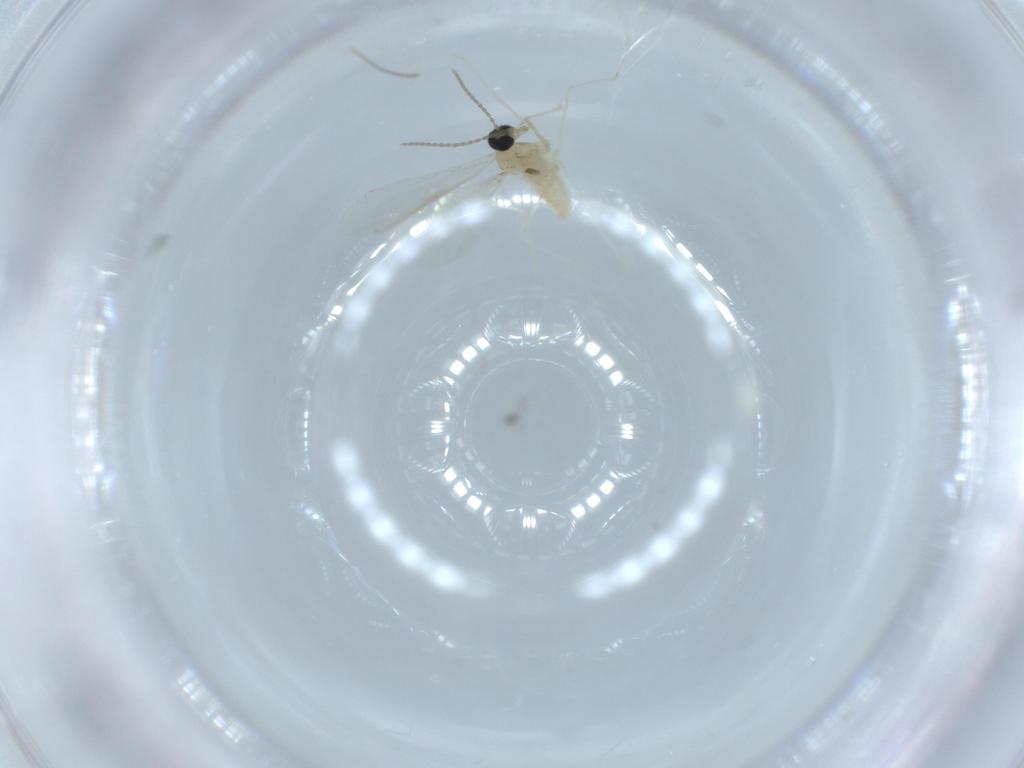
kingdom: Animalia
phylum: Arthropoda
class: Insecta
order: Diptera
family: Cecidomyiidae
